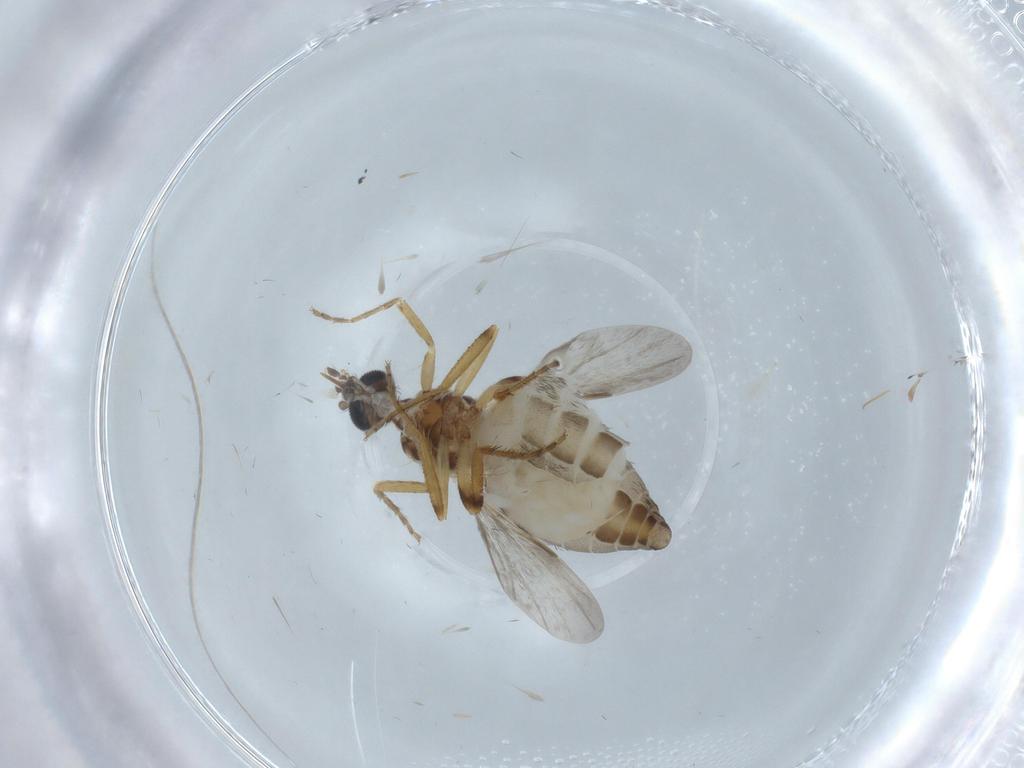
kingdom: Animalia
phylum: Arthropoda
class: Insecta
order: Diptera
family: Ceratopogonidae
